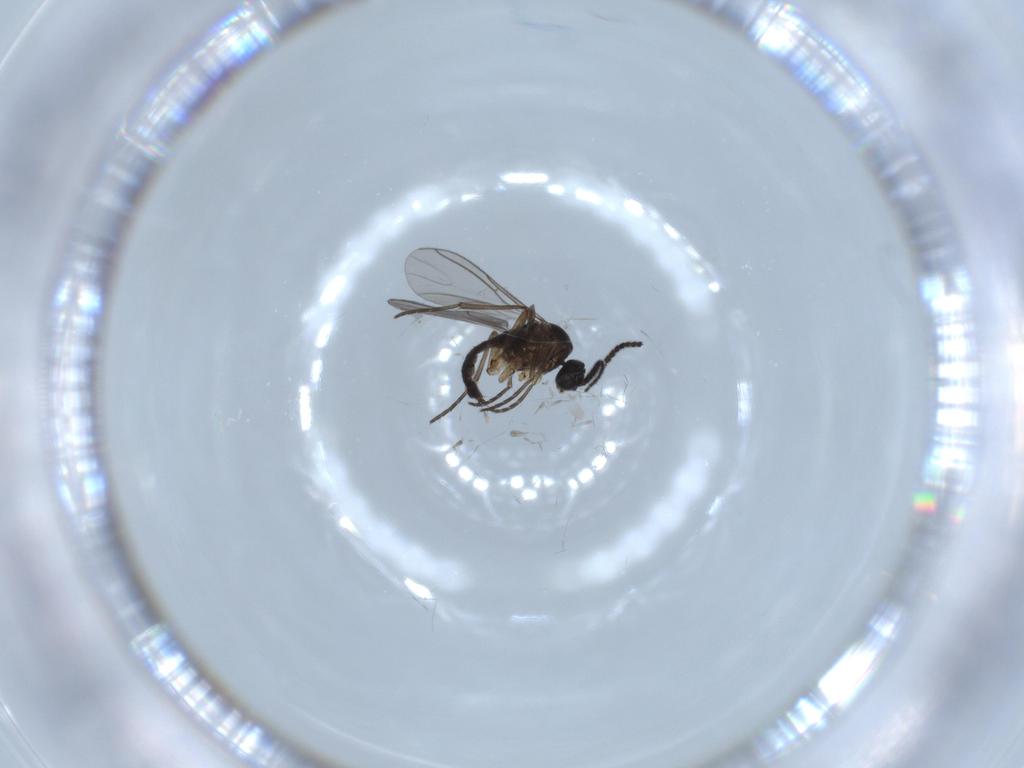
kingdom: Animalia
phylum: Arthropoda
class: Insecta
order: Diptera
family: Sciaridae
